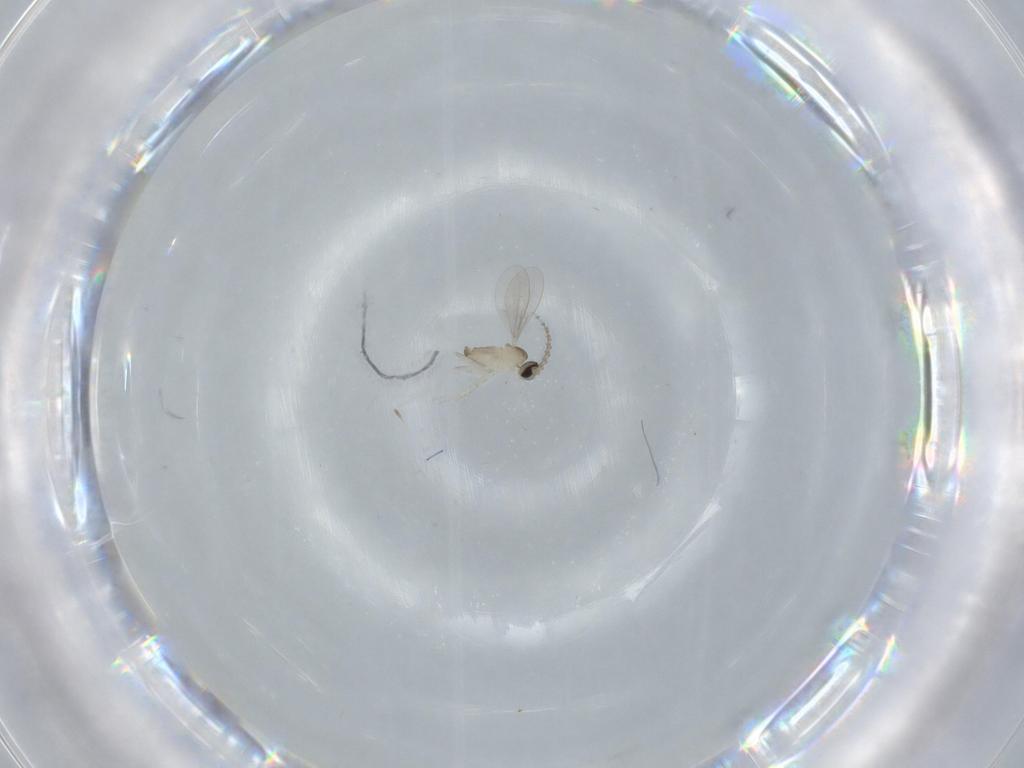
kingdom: Animalia
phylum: Arthropoda
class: Insecta
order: Diptera
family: Cecidomyiidae
